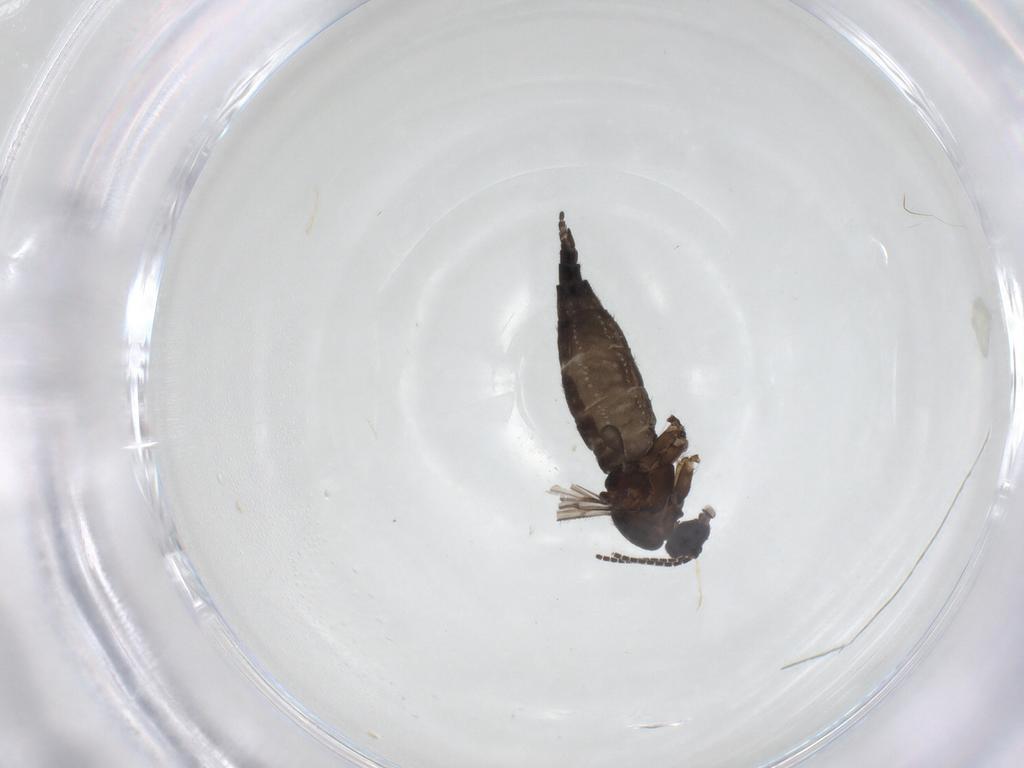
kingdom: Animalia
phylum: Arthropoda
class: Insecta
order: Diptera
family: Sciaridae
